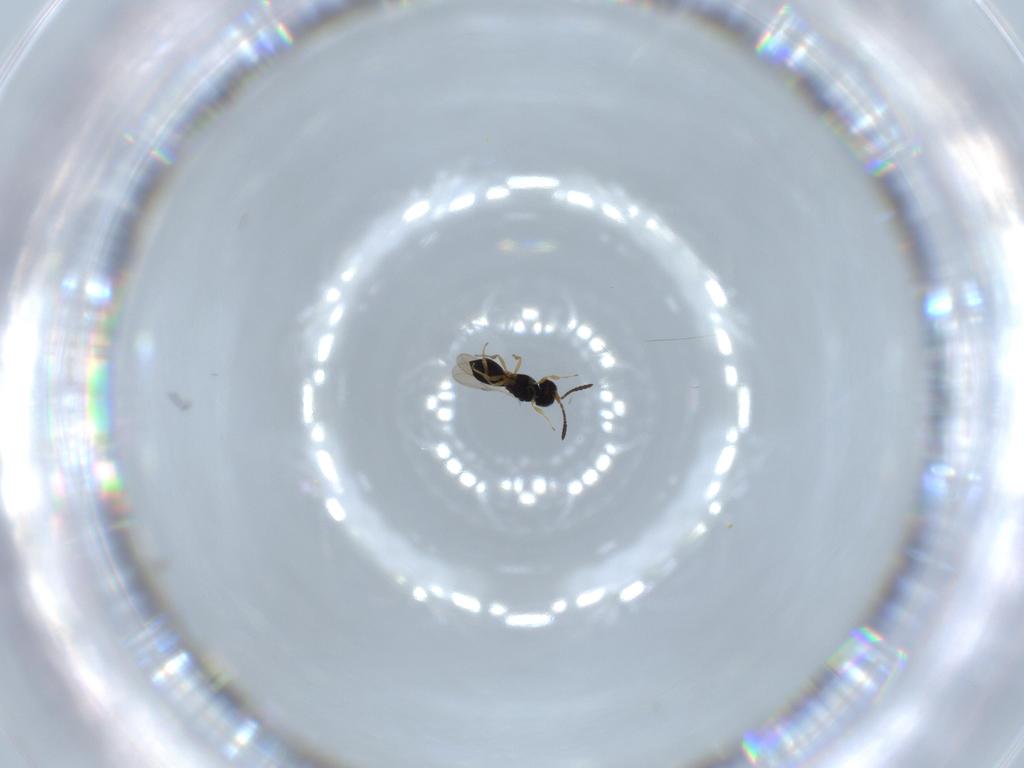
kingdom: Animalia
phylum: Arthropoda
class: Insecta
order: Hymenoptera
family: Scelionidae
